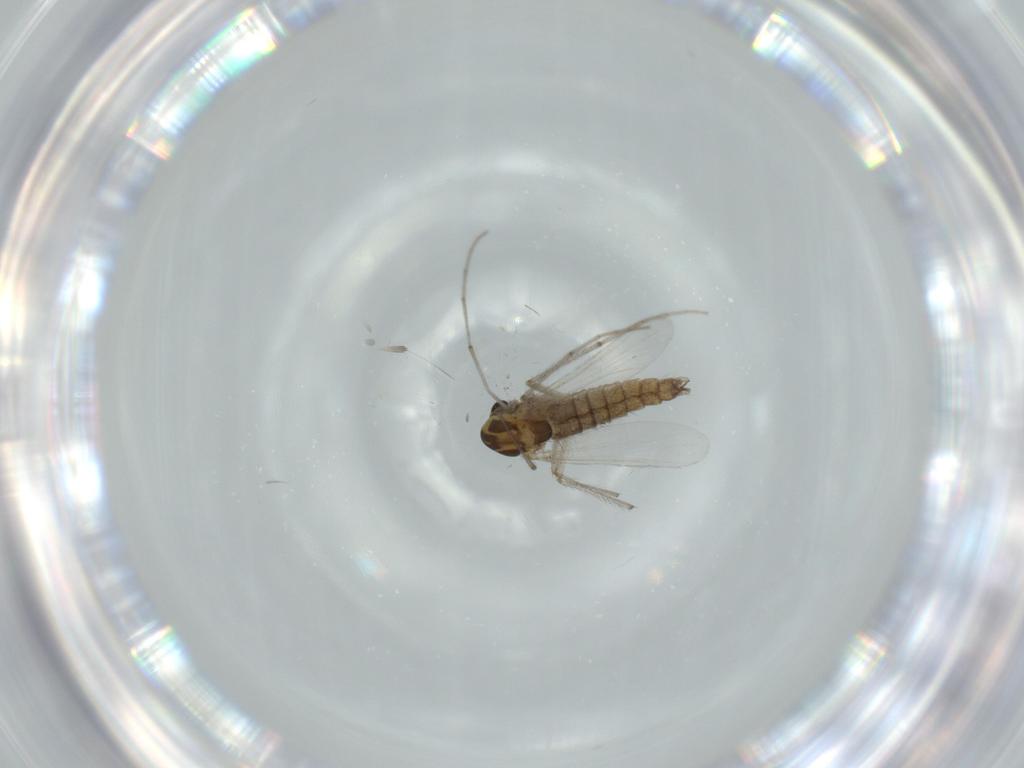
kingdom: Animalia
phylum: Arthropoda
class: Insecta
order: Diptera
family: Chironomidae
